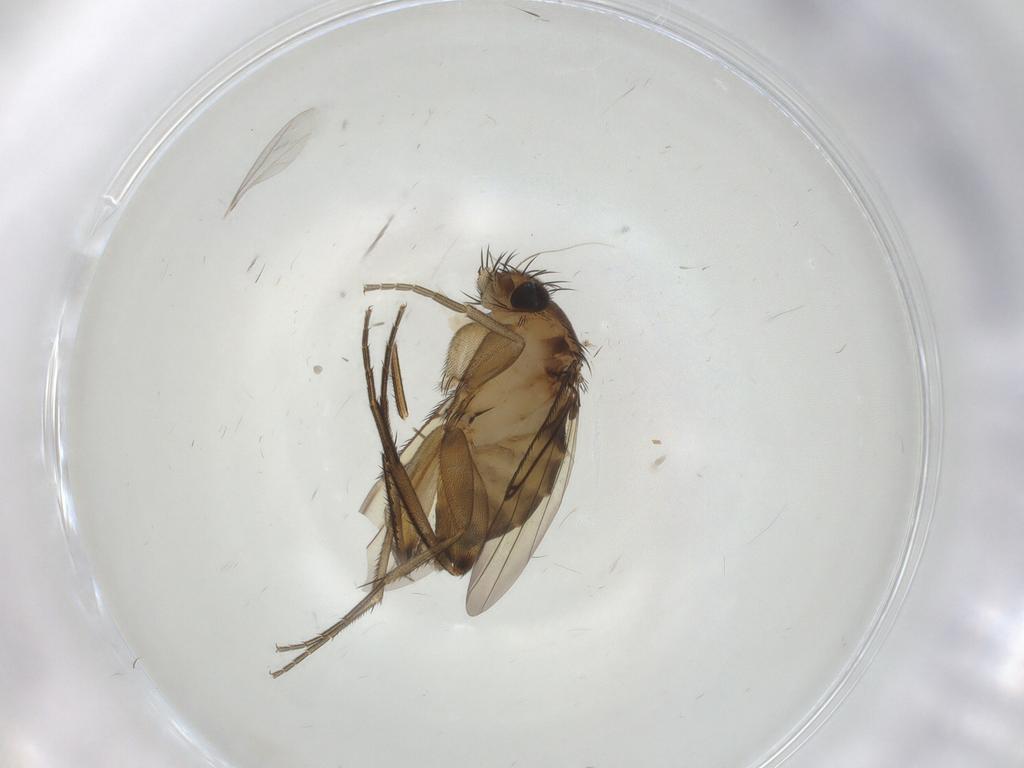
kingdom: Animalia
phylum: Arthropoda
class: Insecta
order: Diptera
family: Phoridae
